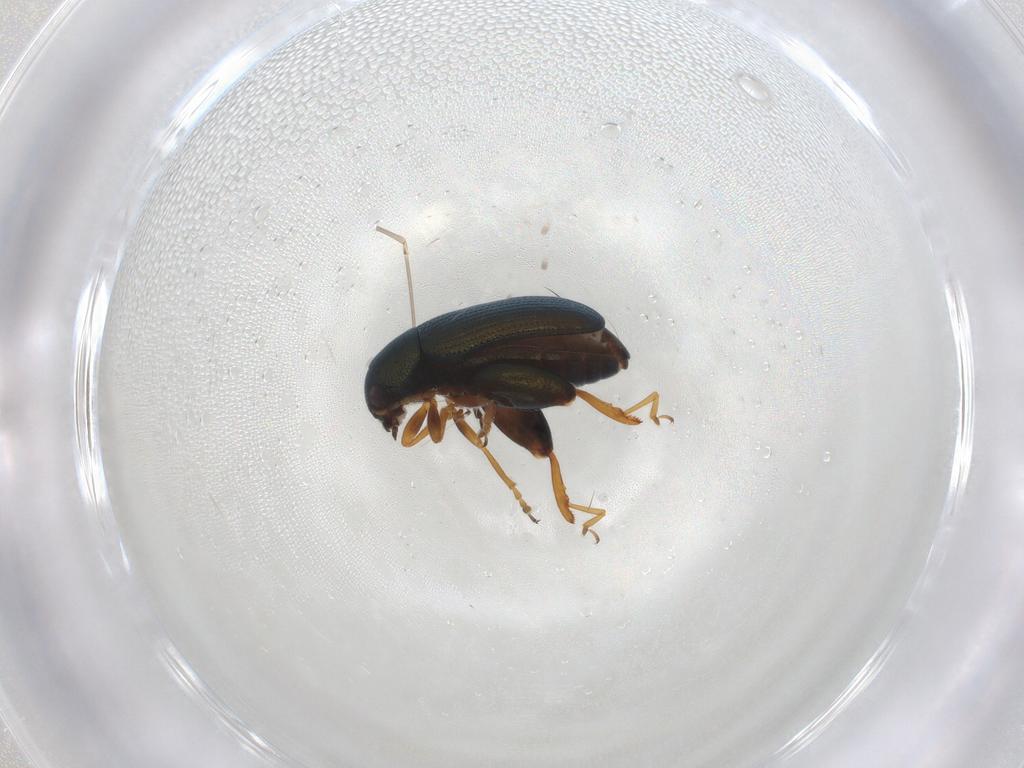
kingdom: Animalia
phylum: Arthropoda
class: Insecta
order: Coleoptera
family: Chrysomelidae
